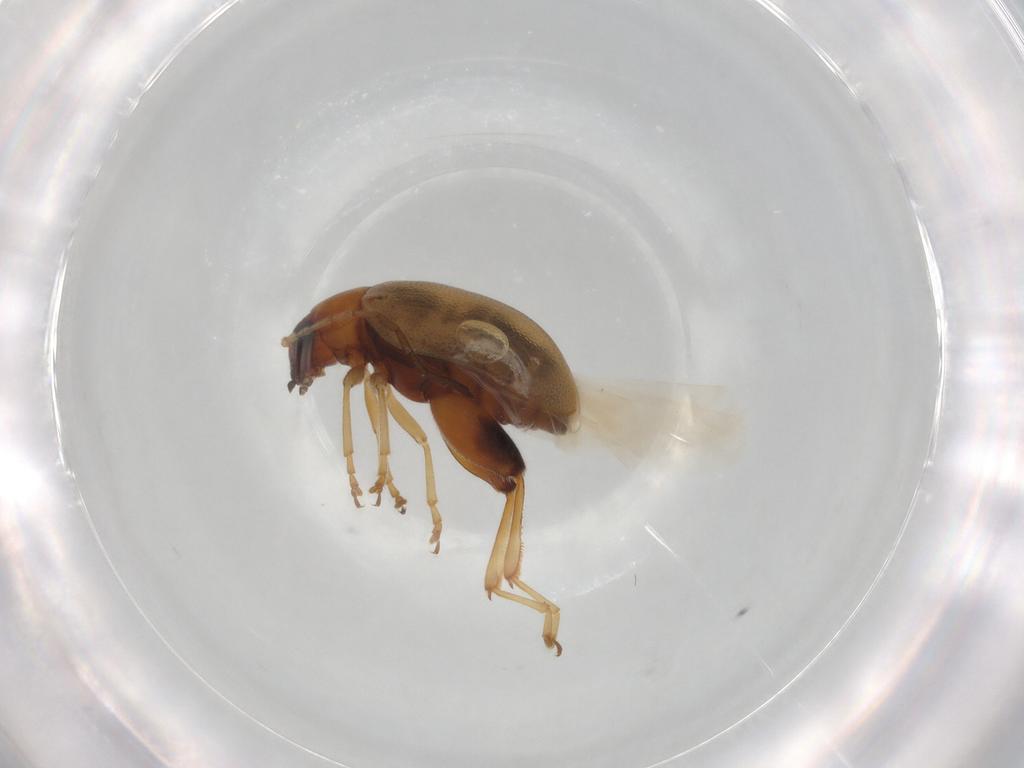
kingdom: Animalia
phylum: Arthropoda
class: Insecta
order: Coleoptera
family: Chrysomelidae
